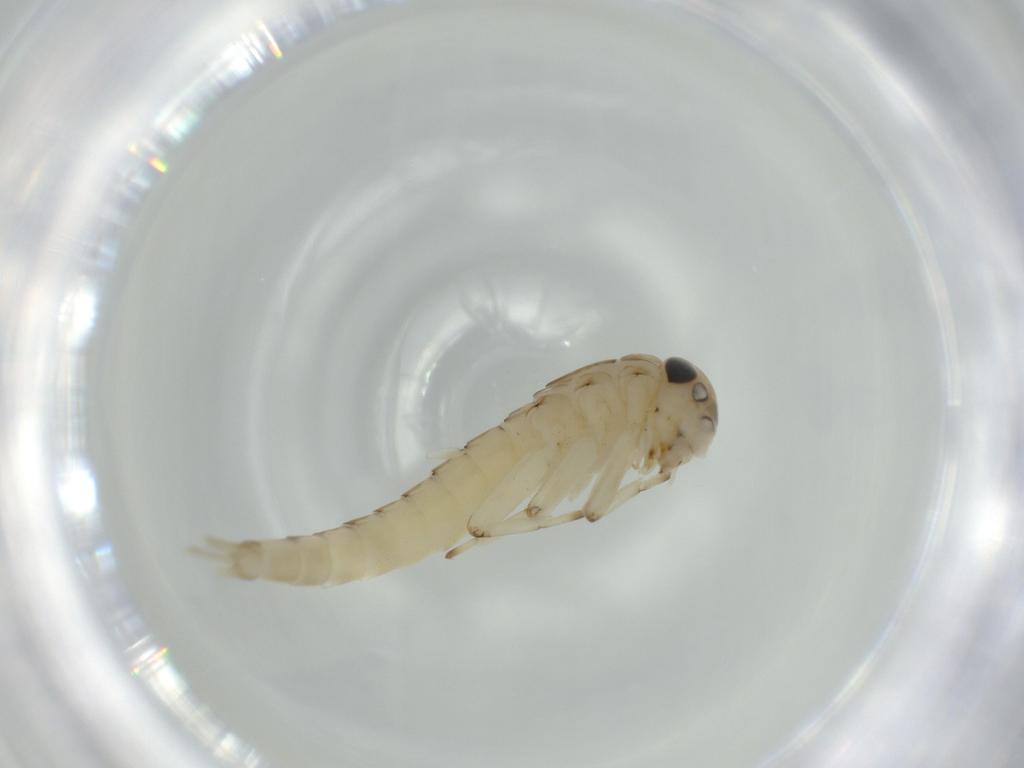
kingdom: Animalia
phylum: Arthropoda
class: Insecta
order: Ephemeroptera
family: Baetidae
